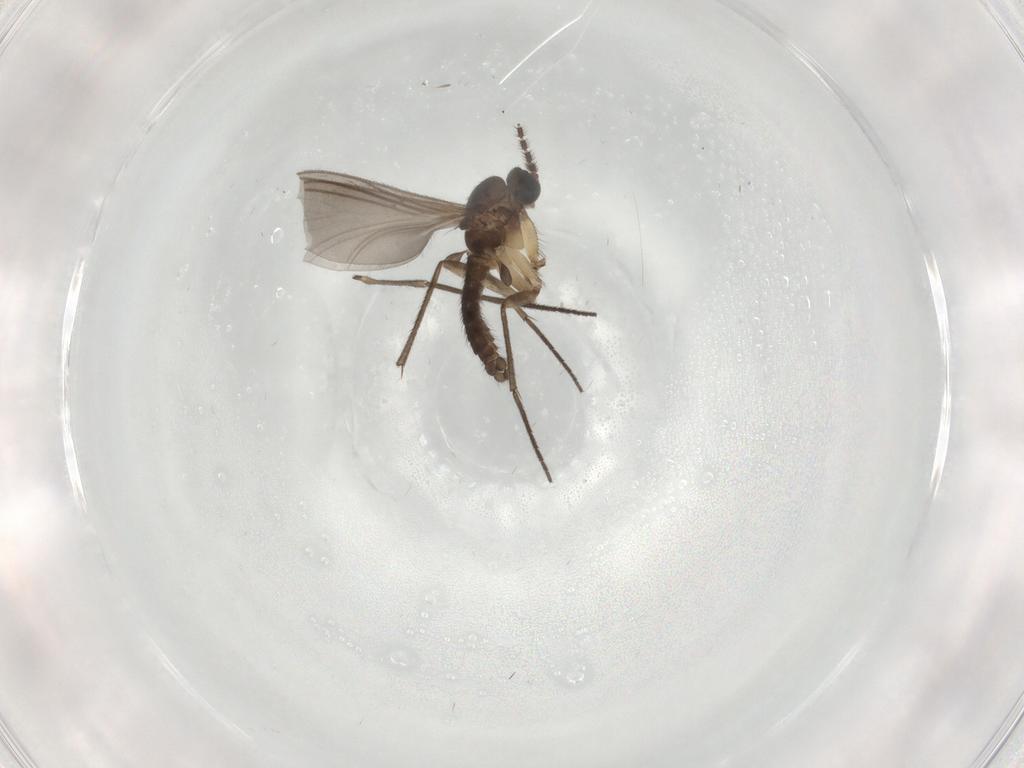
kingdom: Animalia
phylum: Arthropoda
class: Insecta
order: Diptera
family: Sciaridae
